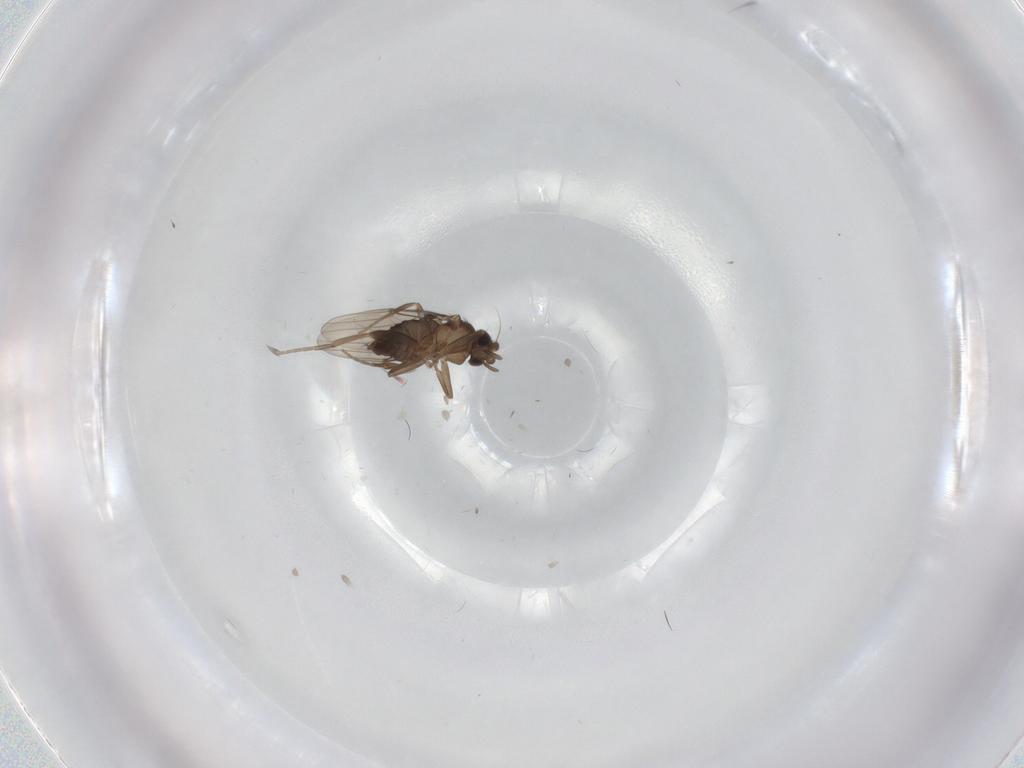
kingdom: Animalia
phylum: Arthropoda
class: Insecta
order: Diptera
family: Phoridae
